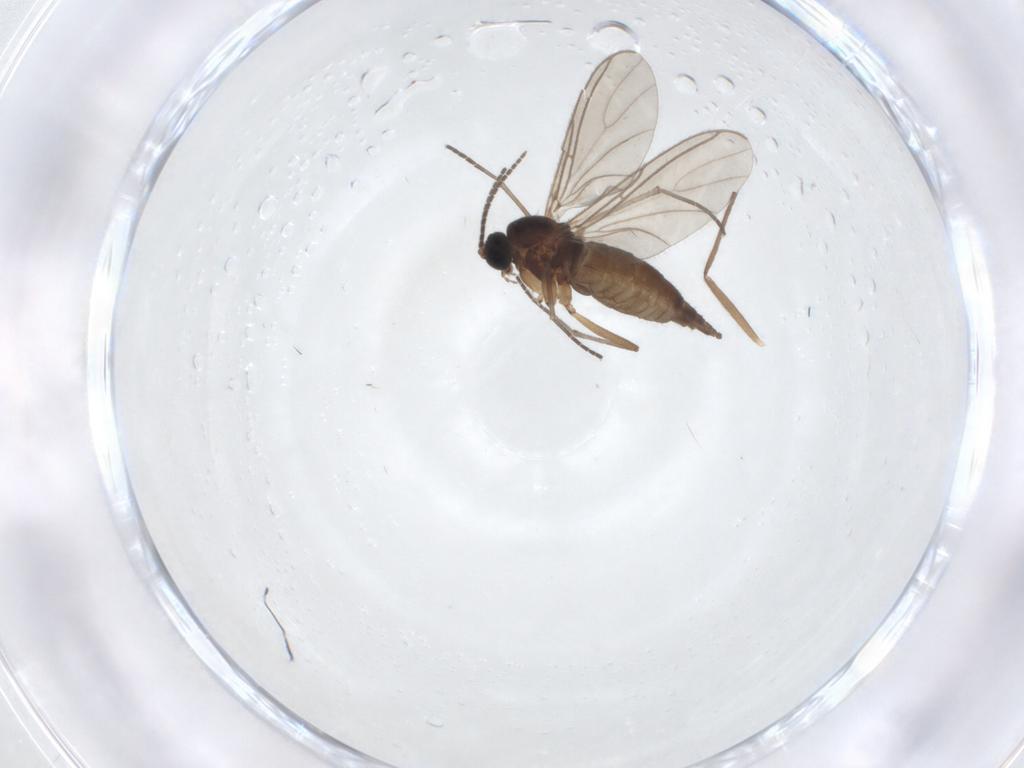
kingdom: Animalia
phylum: Arthropoda
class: Insecta
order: Diptera
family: Sciaridae
